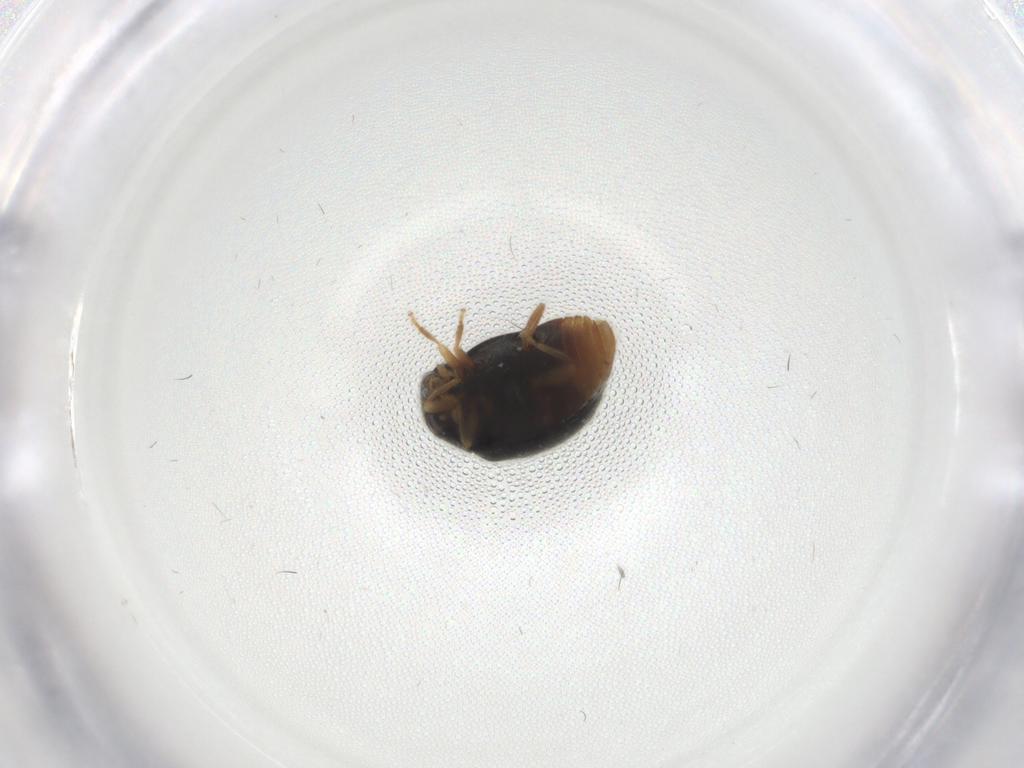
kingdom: Animalia
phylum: Arthropoda
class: Insecta
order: Coleoptera
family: Coccinellidae
